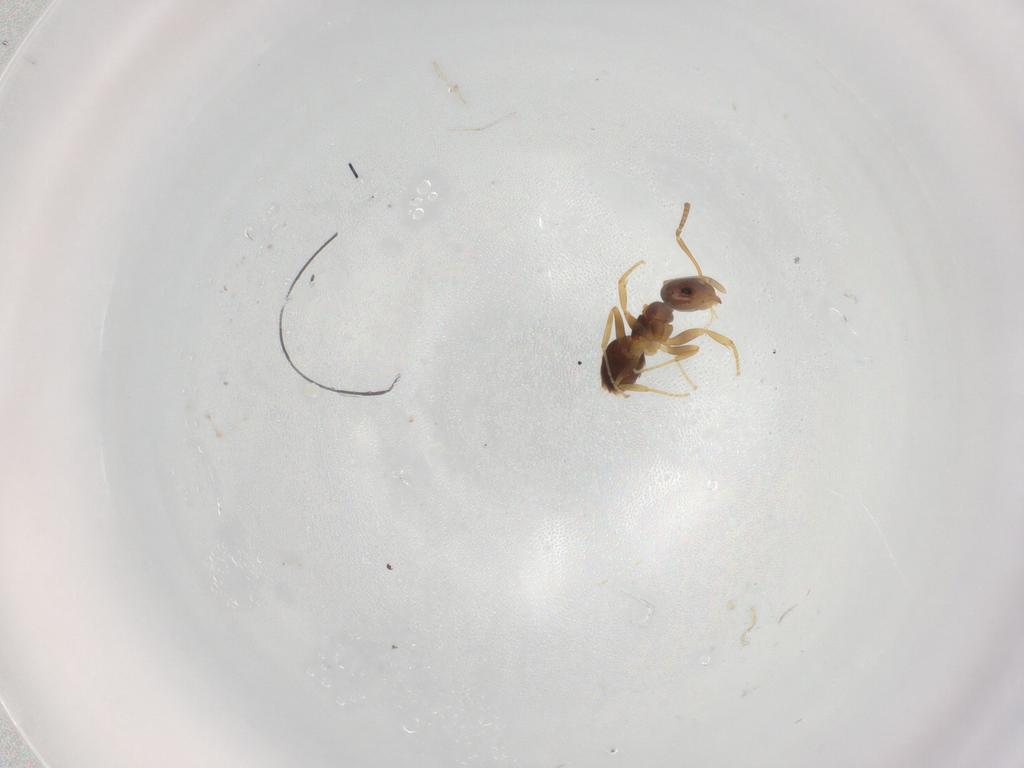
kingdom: Animalia
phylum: Arthropoda
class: Insecta
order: Hymenoptera
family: Formicidae
